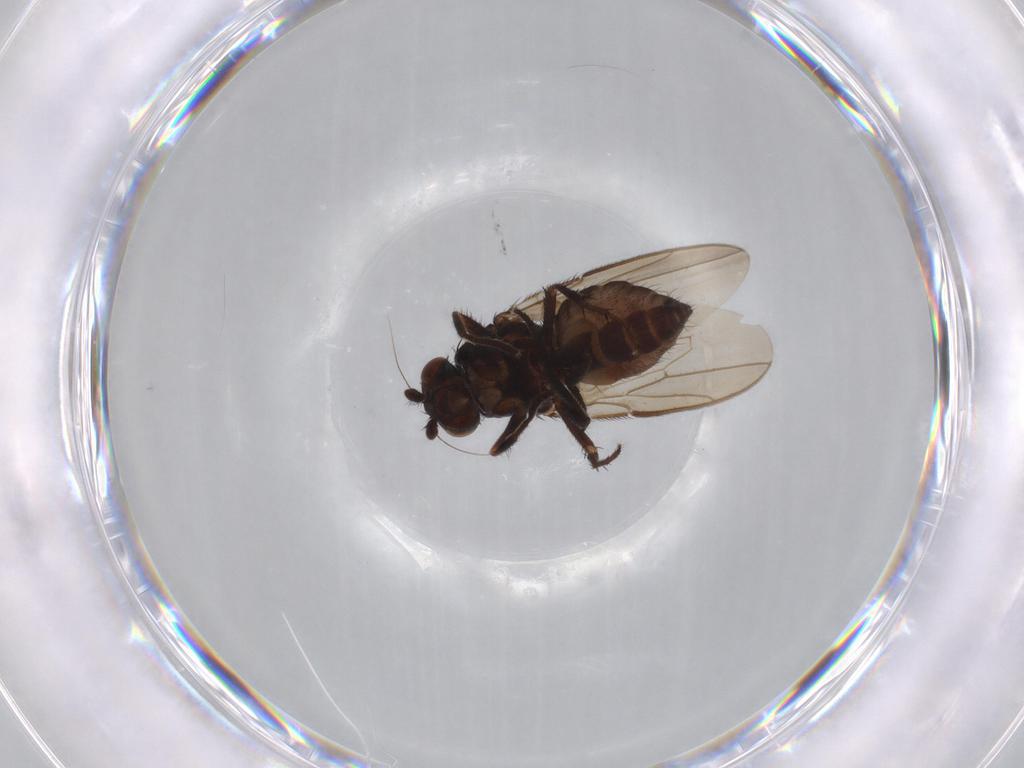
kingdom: Animalia
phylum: Arthropoda
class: Insecta
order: Diptera
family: Sphaeroceridae
